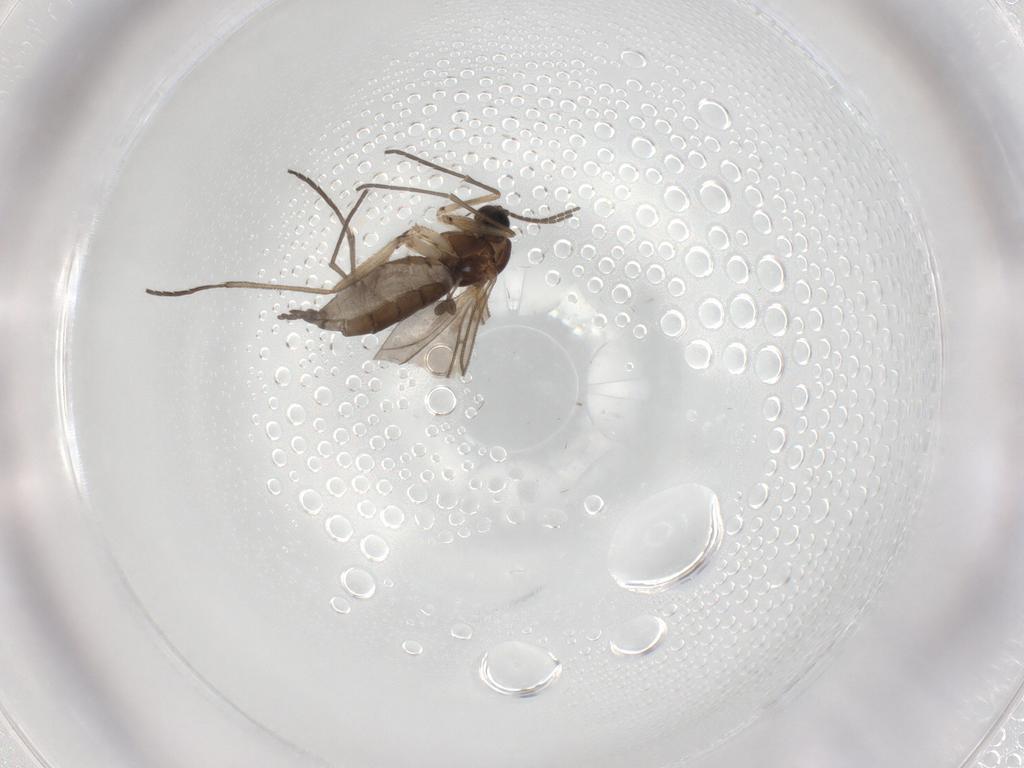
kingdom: Animalia
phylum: Arthropoda
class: Insecta
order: Diptera
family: Sciaridae
